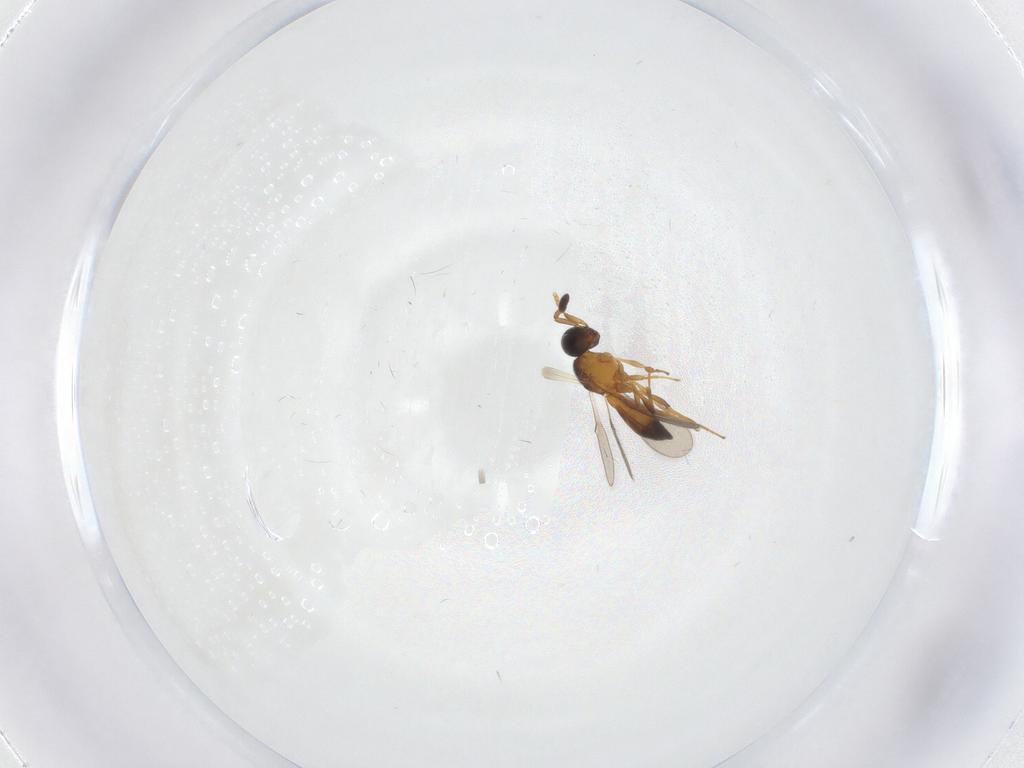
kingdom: Animalia
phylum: Arthropoda
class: Insecta
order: Hymenoptera
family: Scelionidae
